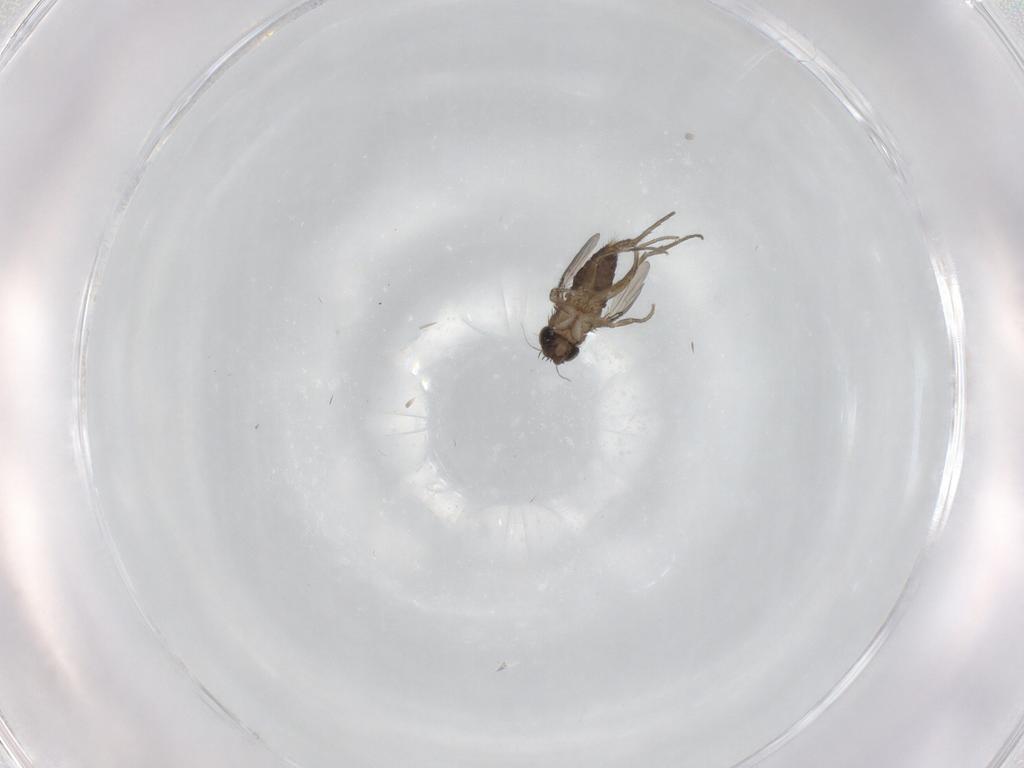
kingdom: Animalia
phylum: Arthropoda
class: Insecta
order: Diptera
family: Phoridae
